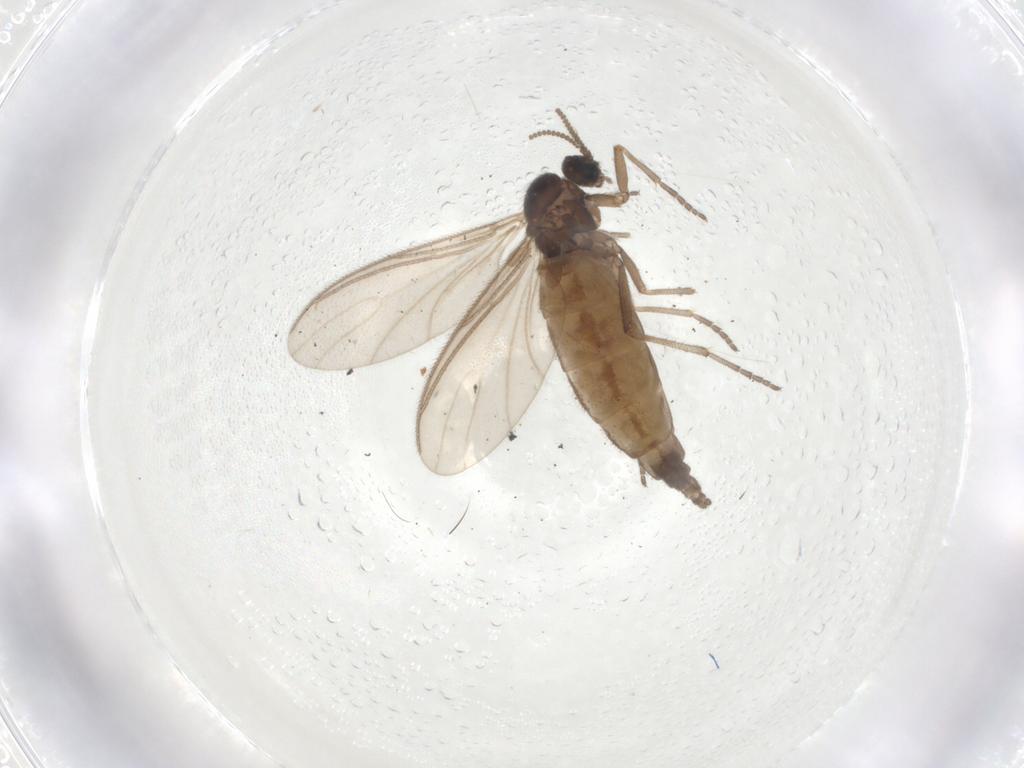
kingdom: Animalia
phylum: Arthropoda
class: Insecta
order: Diptera
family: Sciaridae
